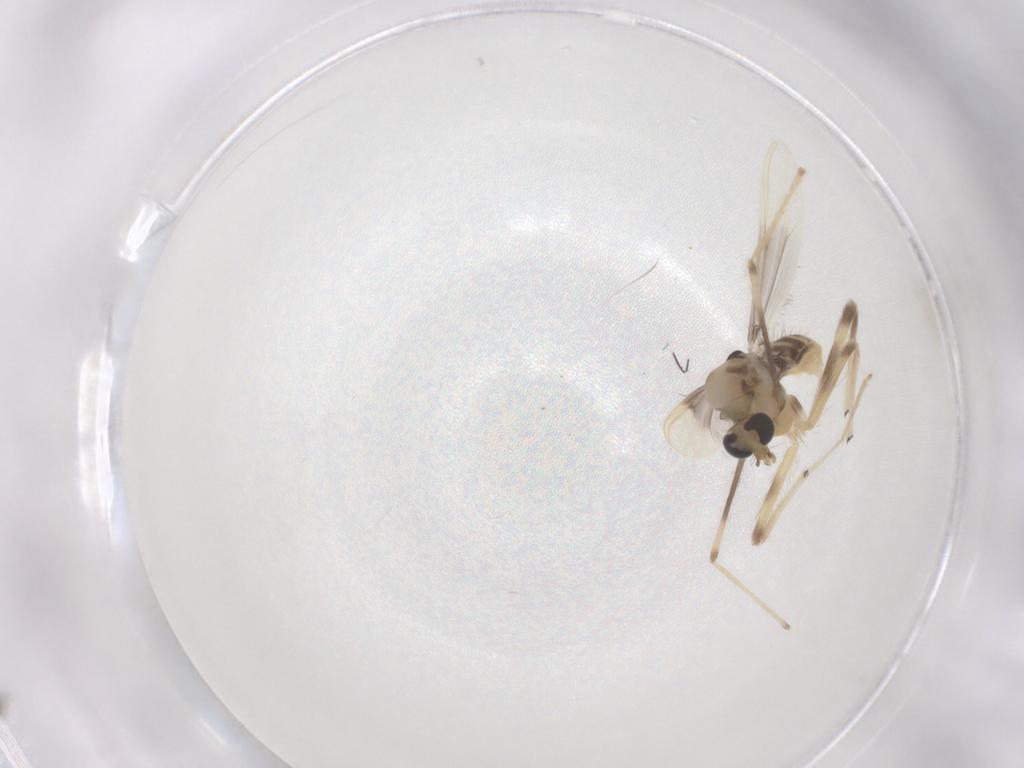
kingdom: Animalia
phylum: Arthropoda
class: Insecta
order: Diptera
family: Sciaridae
